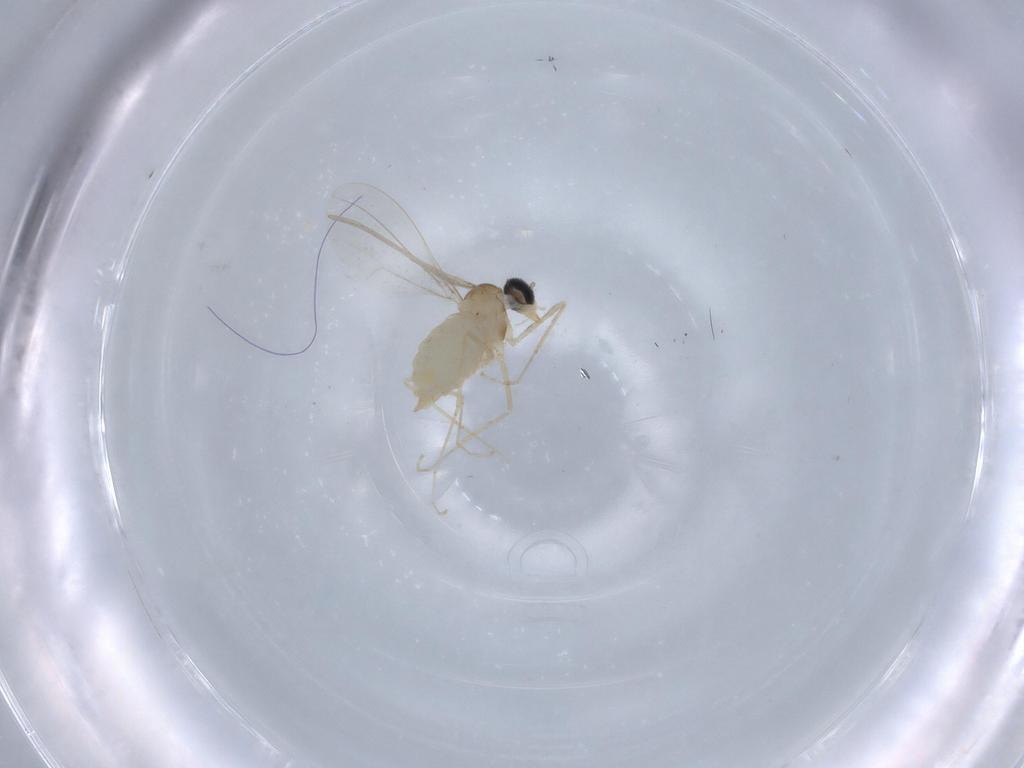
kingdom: Animalia
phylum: Arthropoda
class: Insecta
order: Diptera
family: Cecidomyiidae
